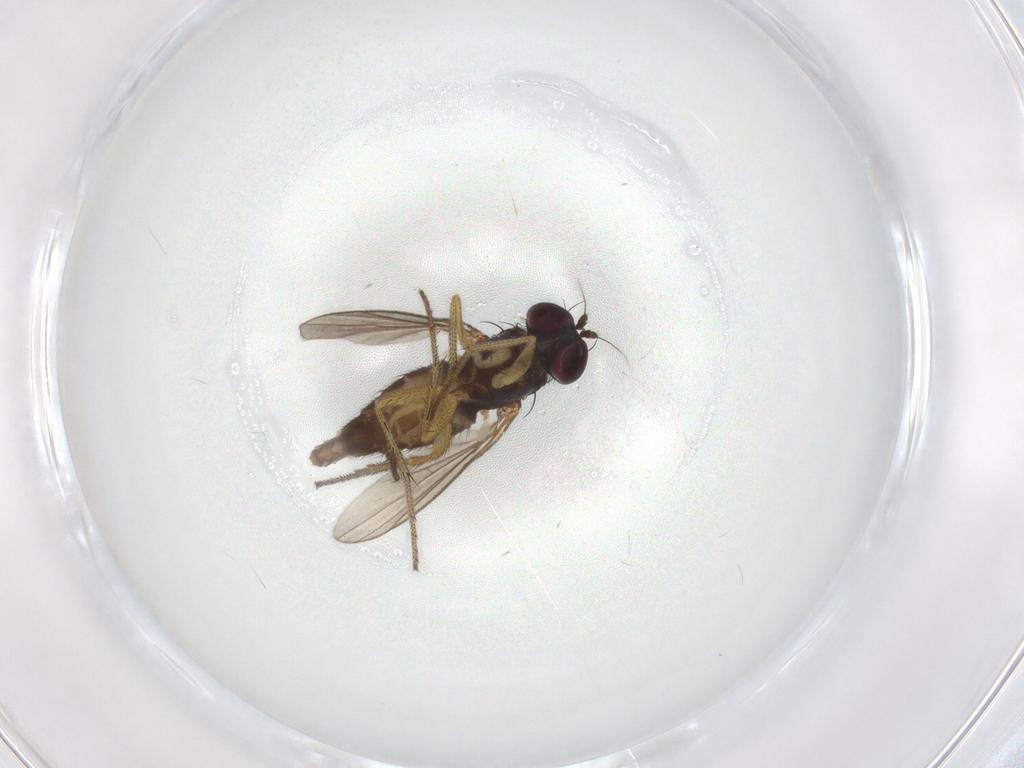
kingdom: Animalia
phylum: Arthropoda
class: Insecta
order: Diptera
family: Dolichopodidae
